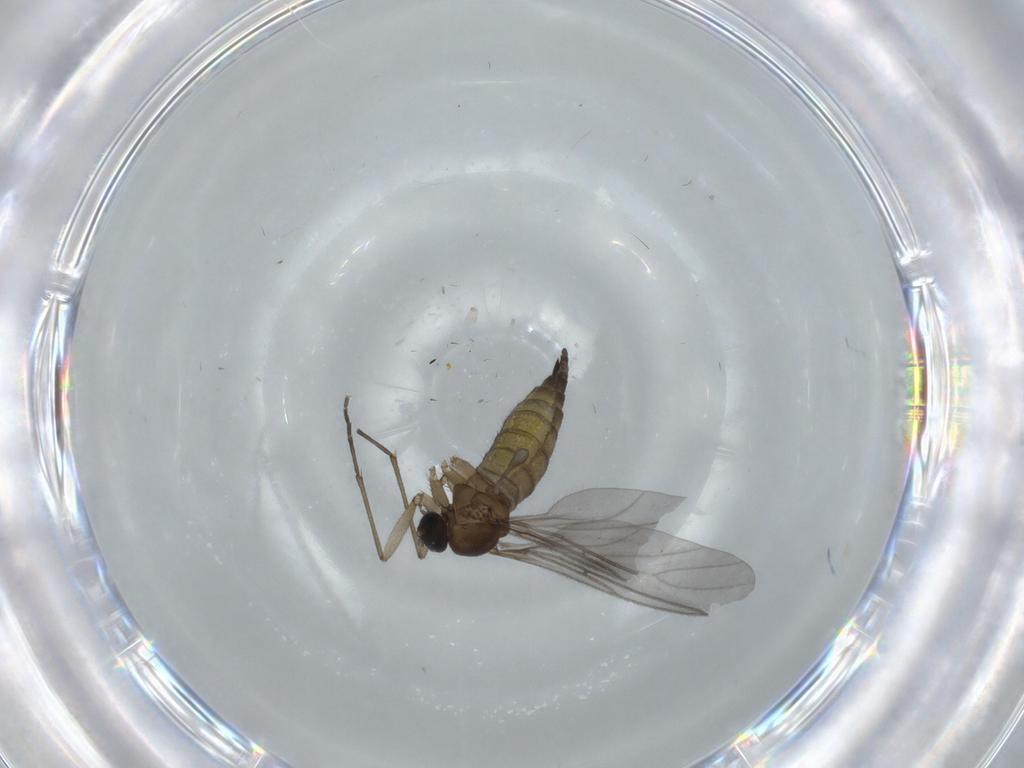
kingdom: Animalia
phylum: Arthropoda
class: Insecta
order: Diptera
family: Sciaridae
